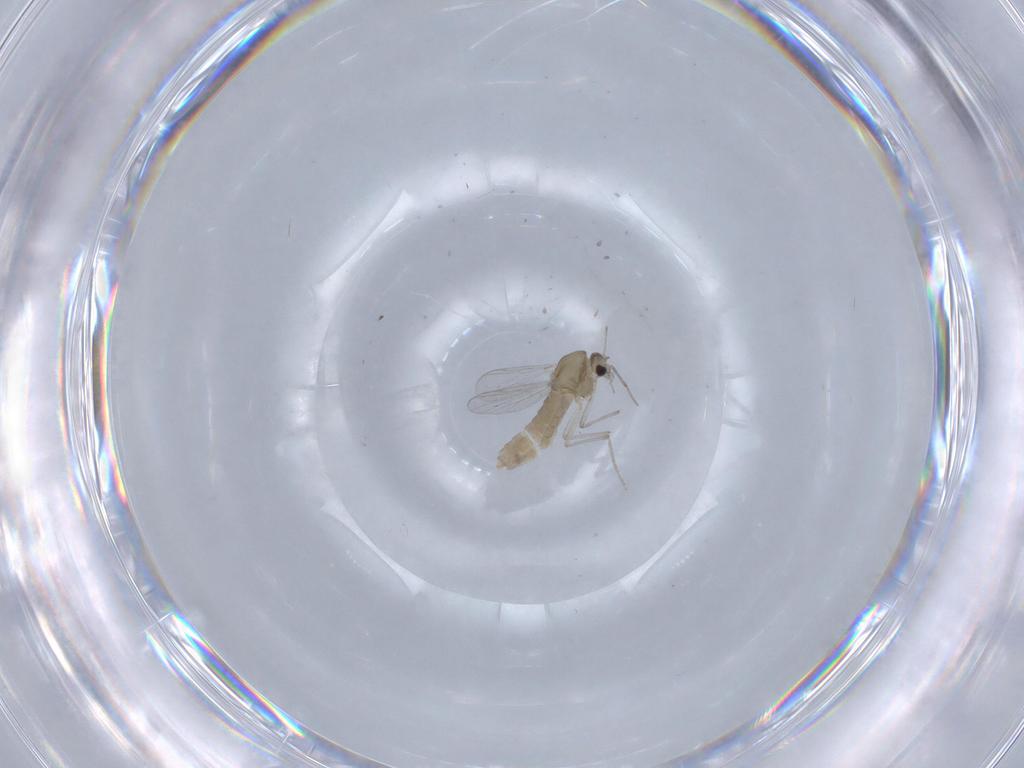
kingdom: Animalia
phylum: Arthropoda
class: Insecta
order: Diptera
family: Chironomidae
